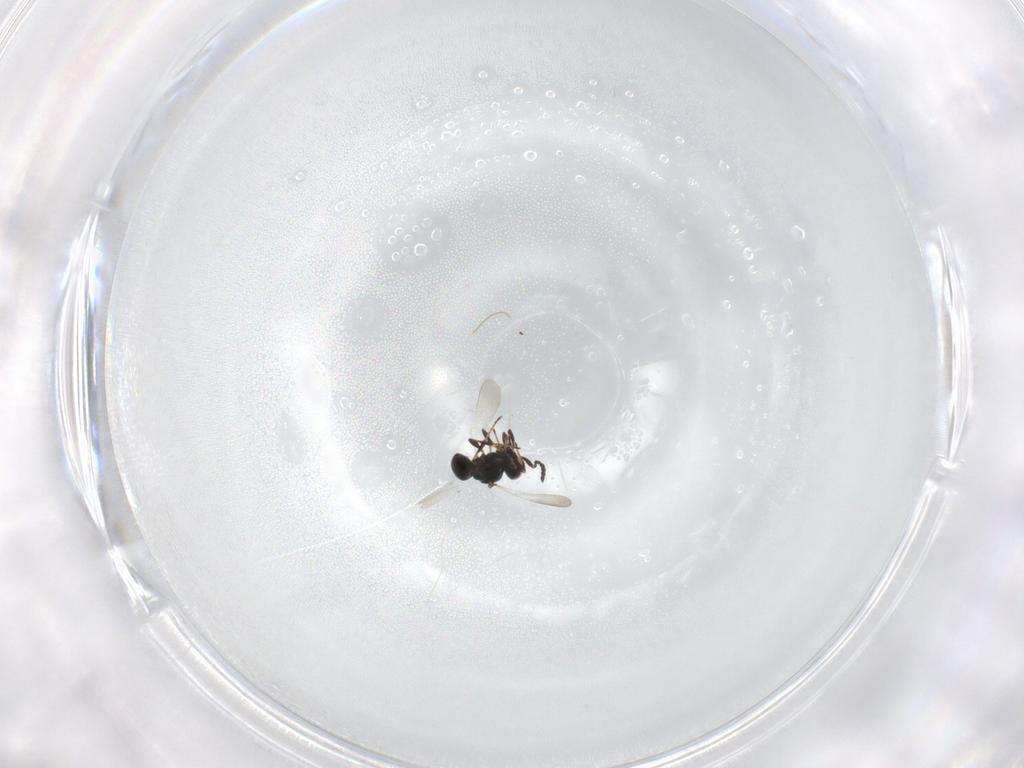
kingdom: Animalia
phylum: Arthropoda
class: Insecta
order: Hymenoptera
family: Platygastridae
